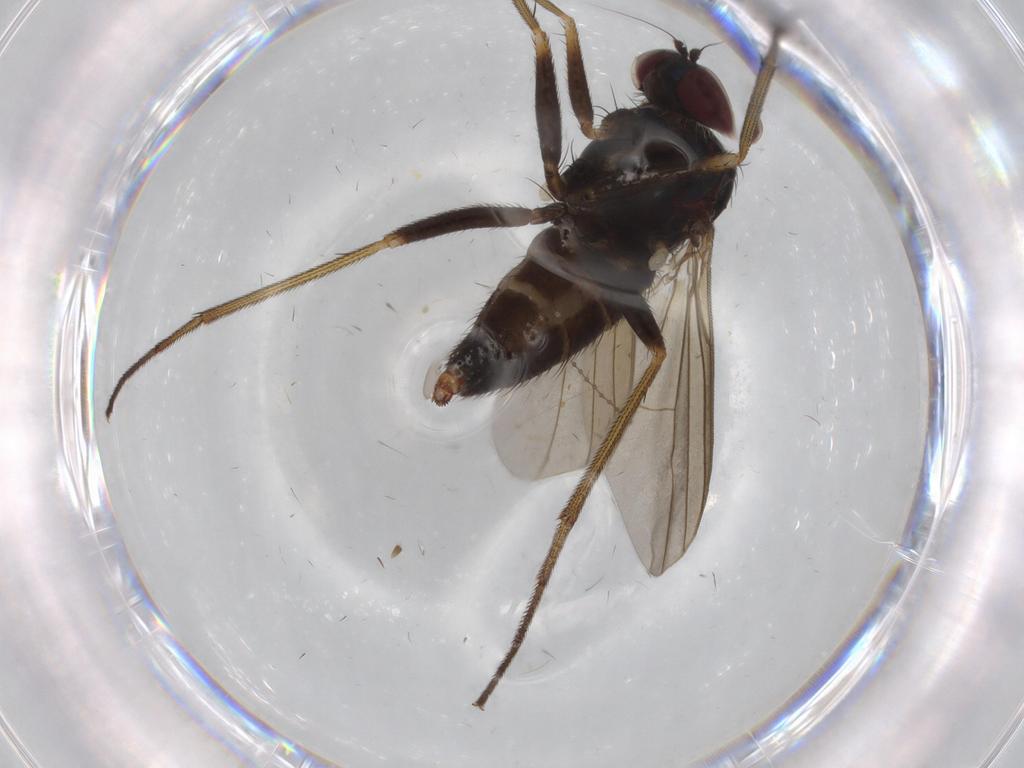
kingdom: Animalia
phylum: Arthropoda
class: Insecta
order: Diptera
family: Dolichopodidae
